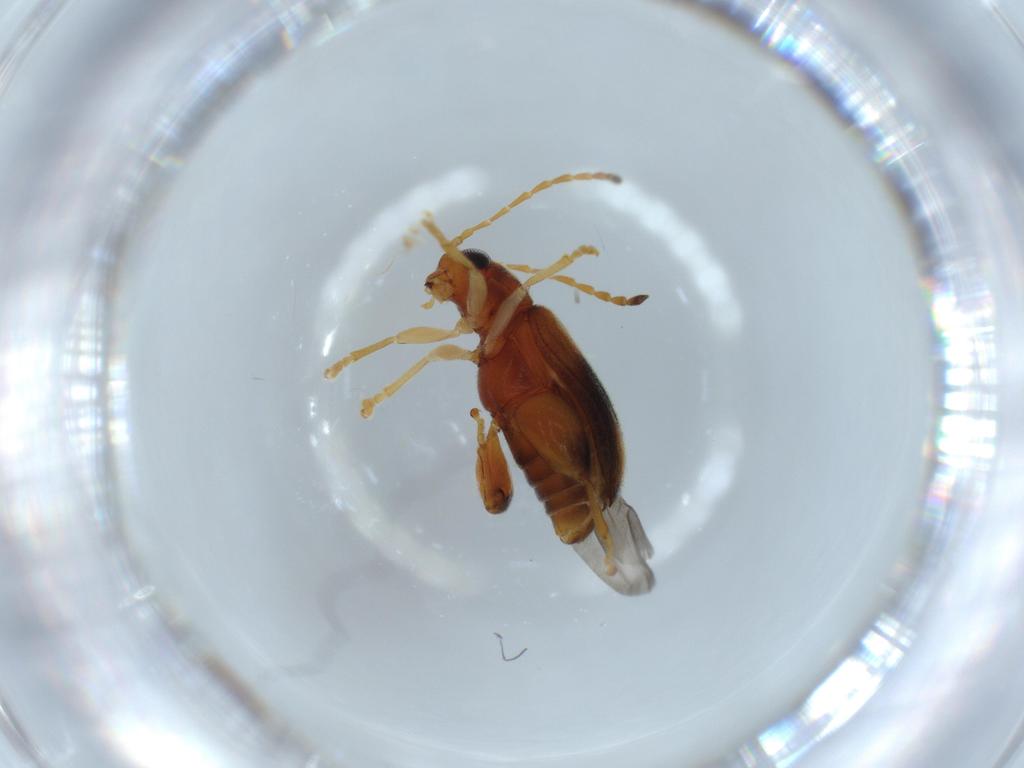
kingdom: Animalia
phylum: Arthropoda
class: Insecta
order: Coleoptera
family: Chrysomelidae
